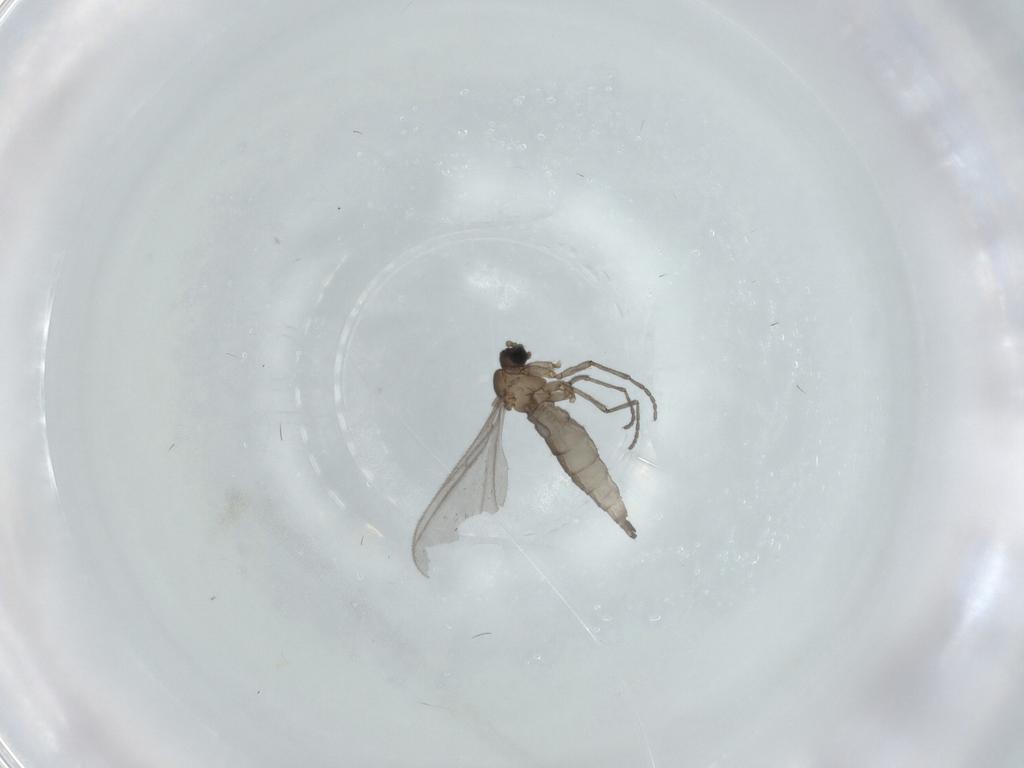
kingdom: Animalia
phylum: Arthropoda
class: Insecta
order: Diptera
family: Sciaridae
